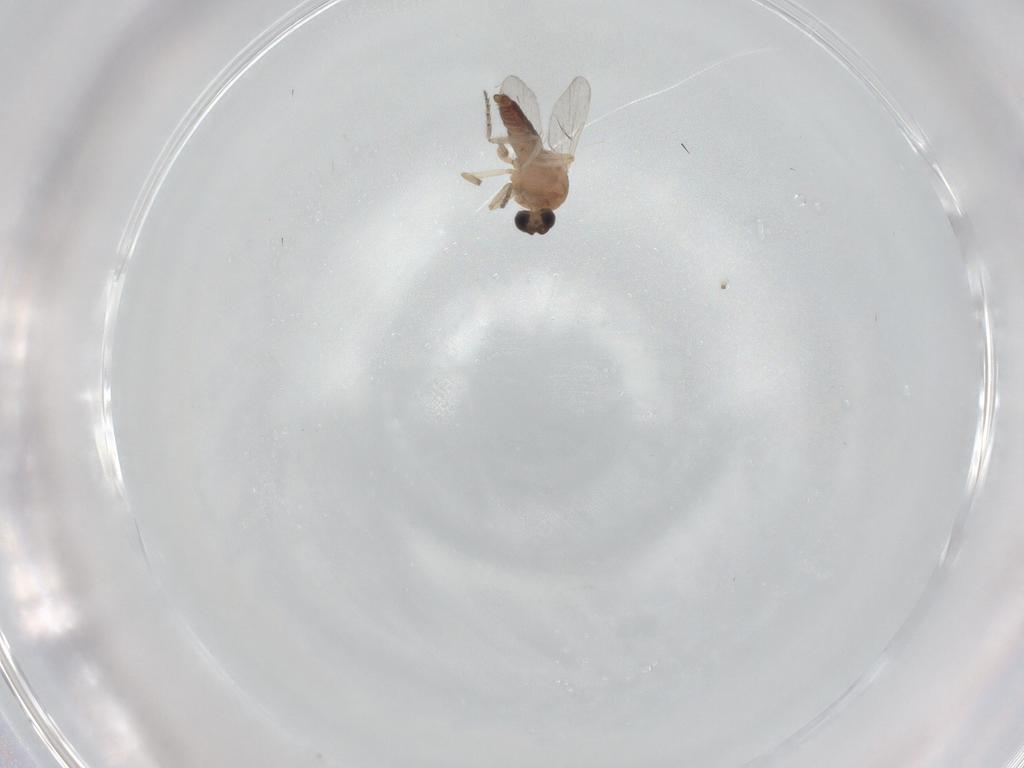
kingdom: Animalia
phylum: Arthropoda
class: Insecta
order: Diptera
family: Ceratopogonidae
